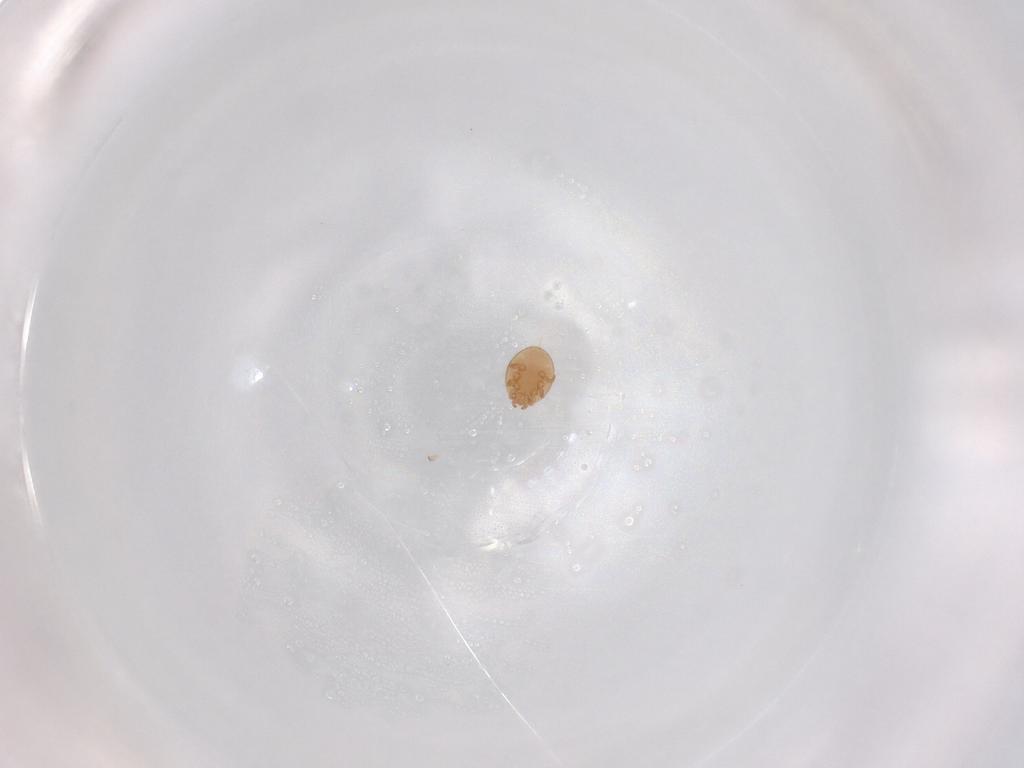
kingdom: Animalia
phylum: Arthropoda
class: Arachnida
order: Mesostigmata
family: Trematuridae
